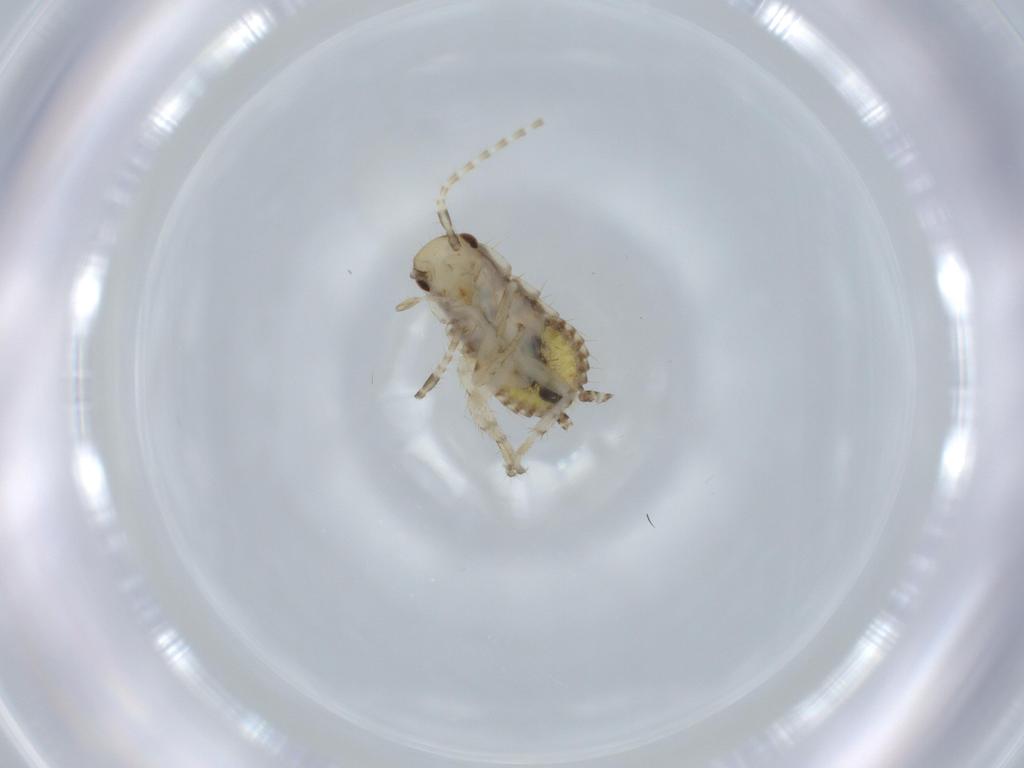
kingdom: Animalia
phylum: Arthropoda
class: Insecta
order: Blattodea
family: Ectobiidae
